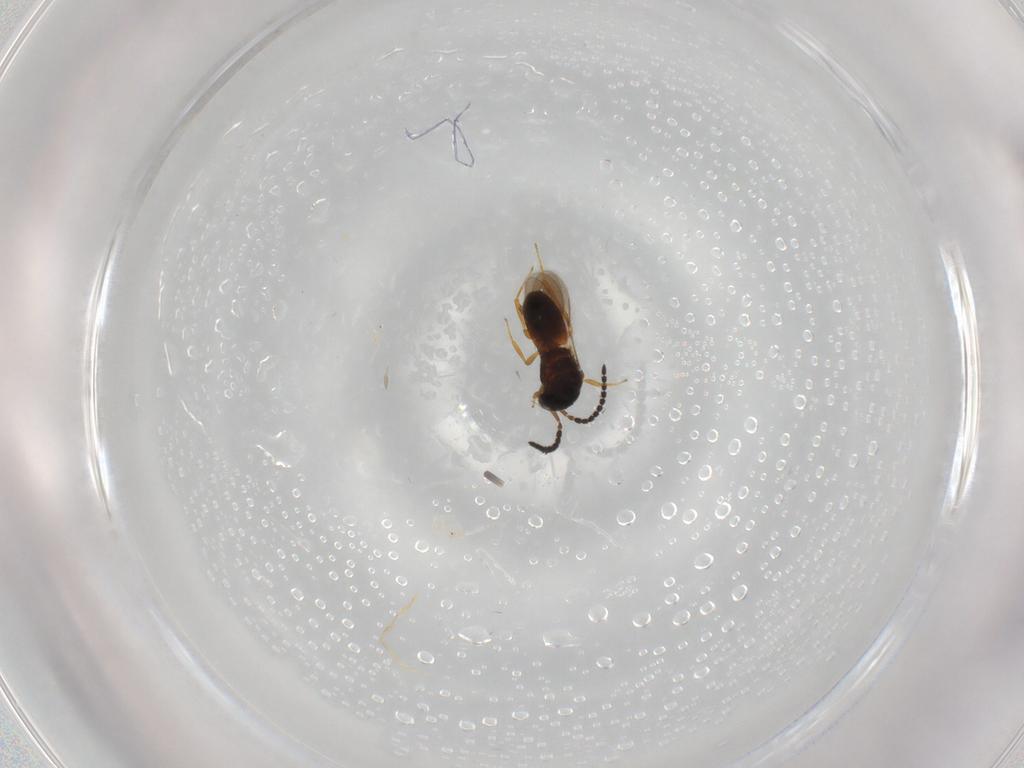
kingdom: Animalia
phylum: Arthropoda
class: Insecta
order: Hymenoptera
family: Scelionidae
